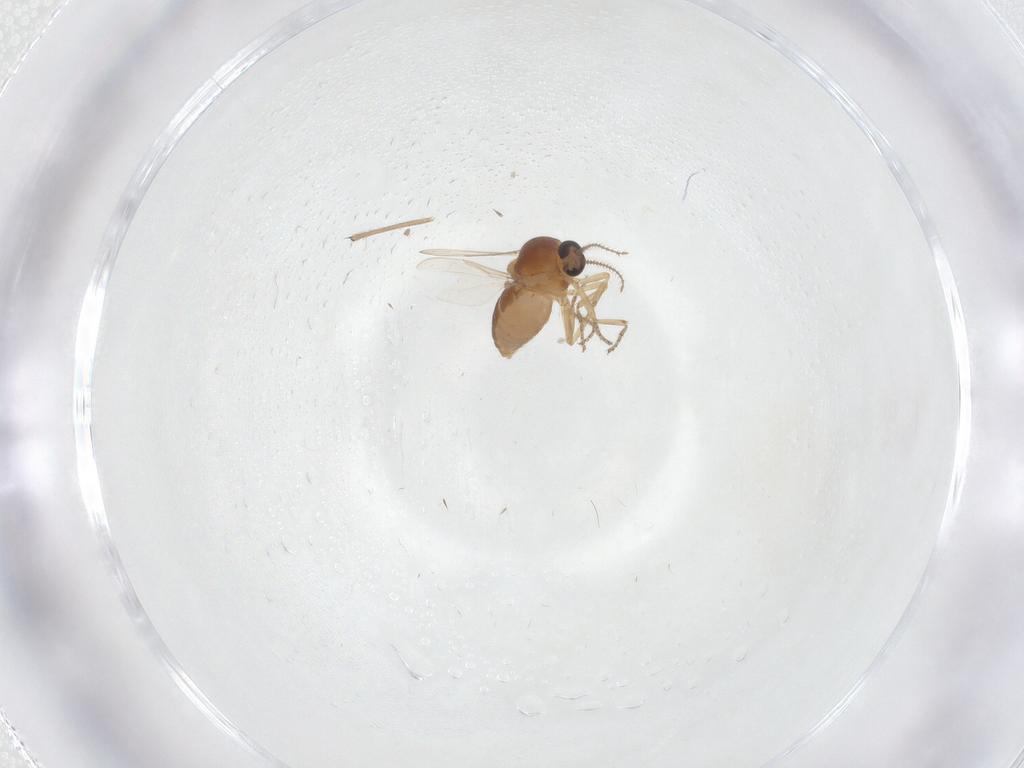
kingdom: Animalia
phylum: Arthropoda
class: Insecta
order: Diptera
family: Ceratopogonidae
